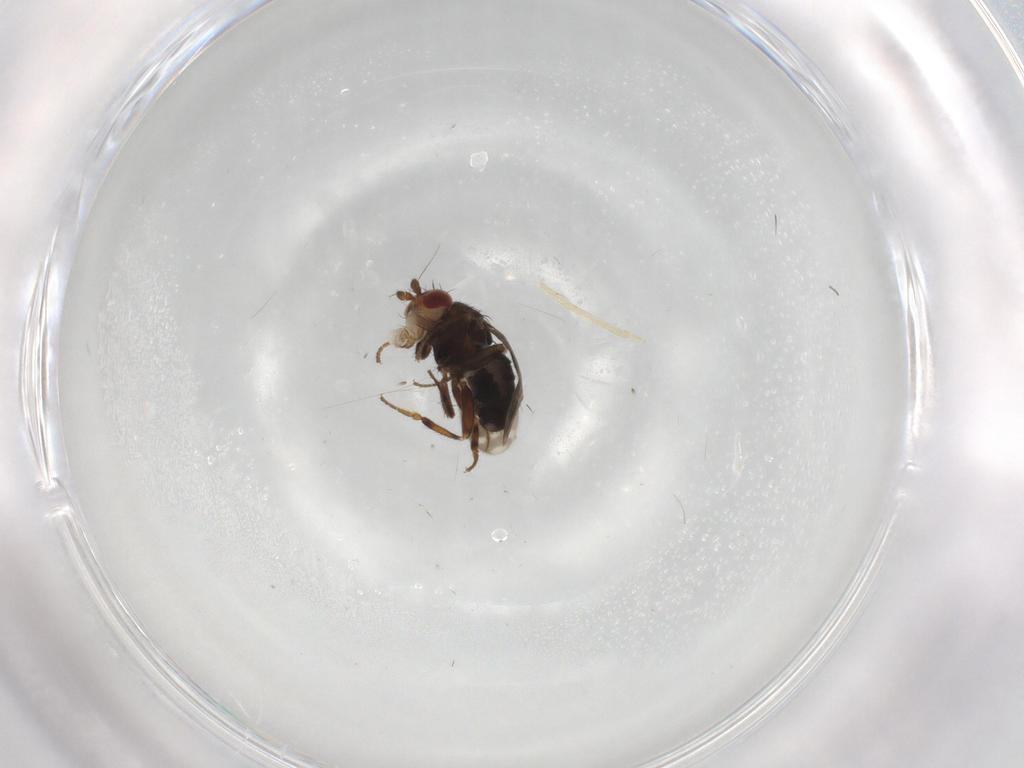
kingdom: Animalia
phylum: Arthropoda
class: Insecta
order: Diptera
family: Sphaeroceridae
